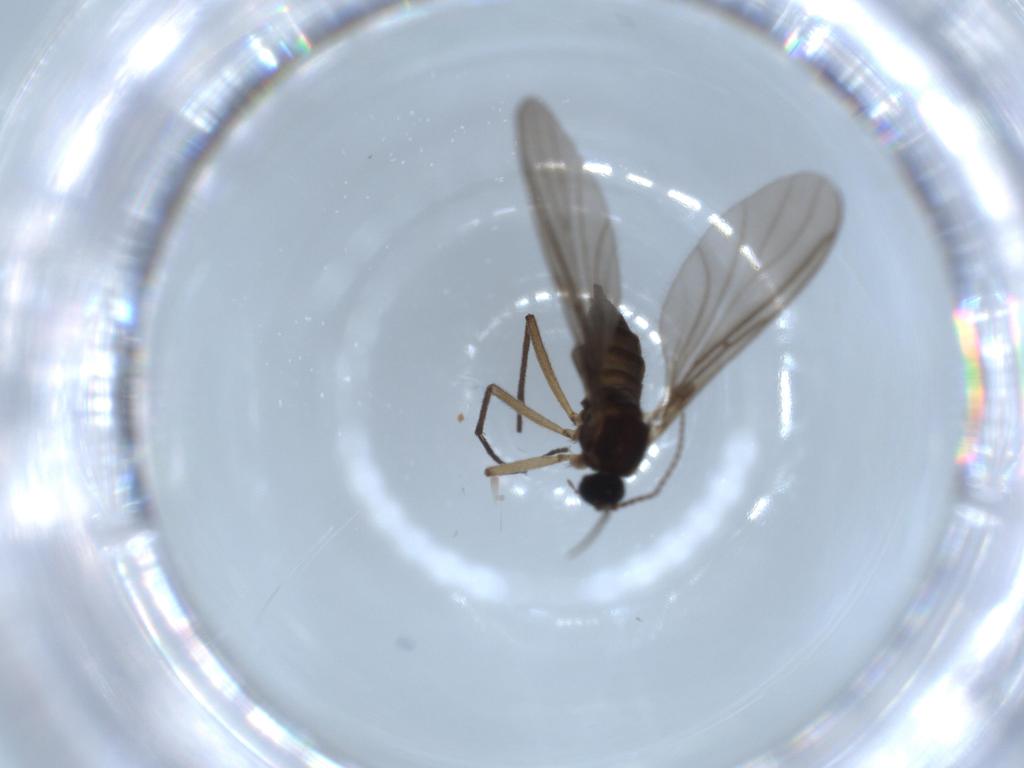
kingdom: Animalia
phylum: Arthropoda
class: Insecta
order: Diptera
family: Sciaridae
